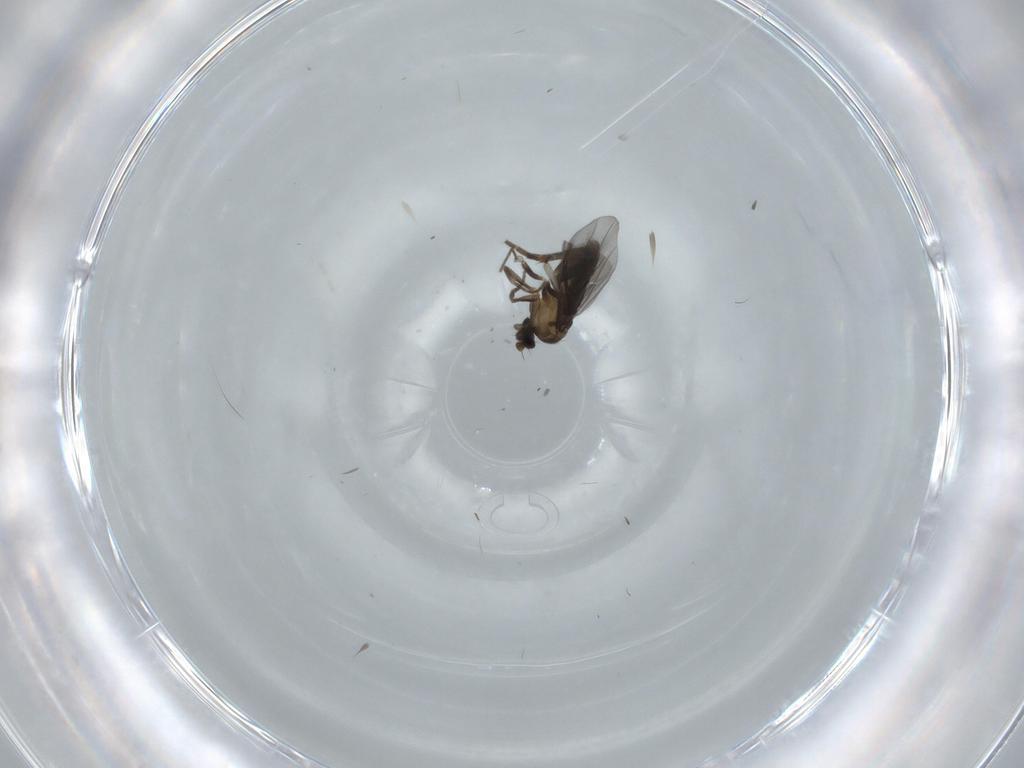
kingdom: Animalia
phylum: Arthropoda
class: Insecta
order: Diptera
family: Phoridae
